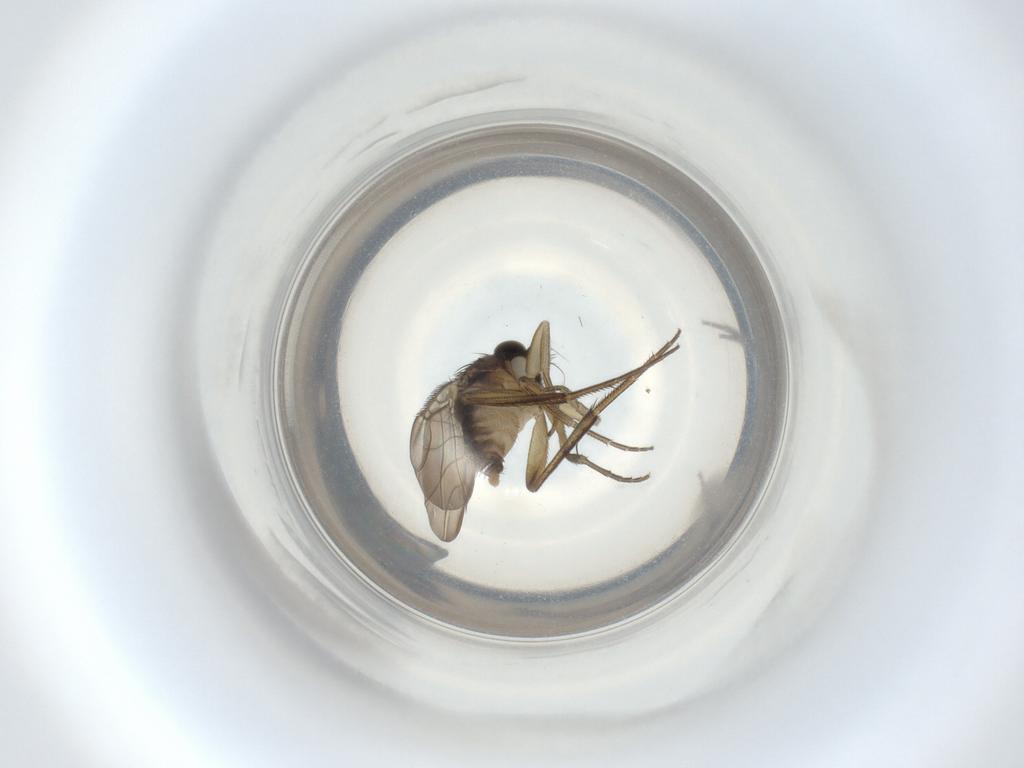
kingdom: Animalia
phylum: Arthropoda
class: Insecta
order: Diptera
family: Phoridae
